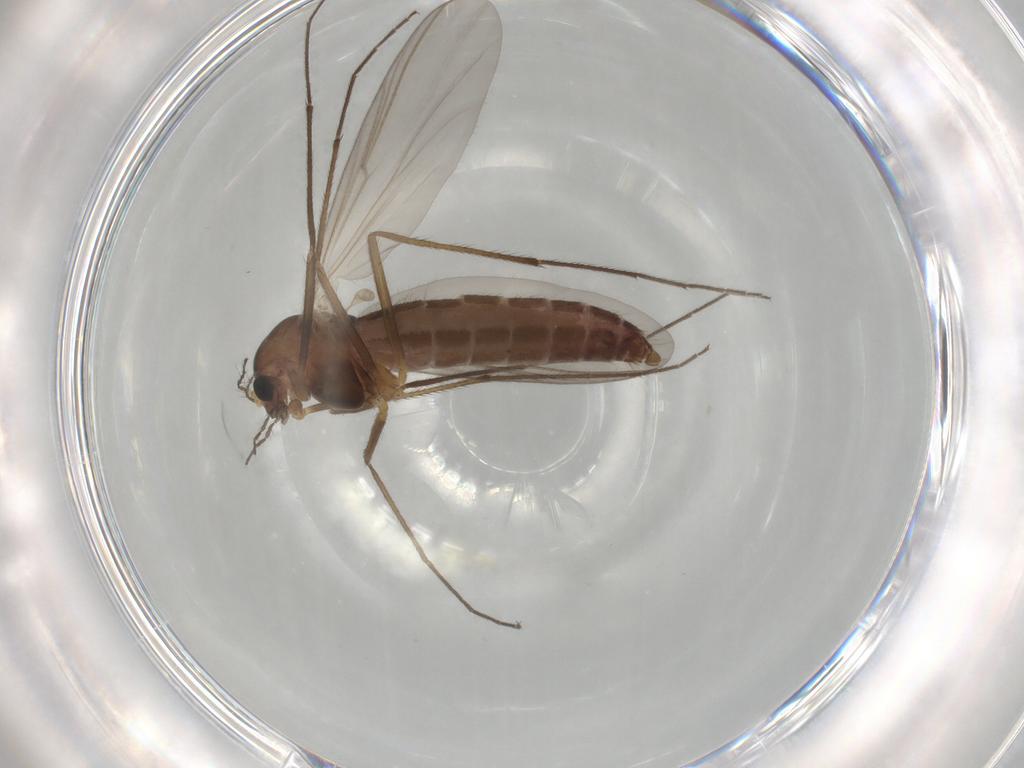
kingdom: Animalia
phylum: Arthropoda
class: Insecta
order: Diptera
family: Chironomidae
